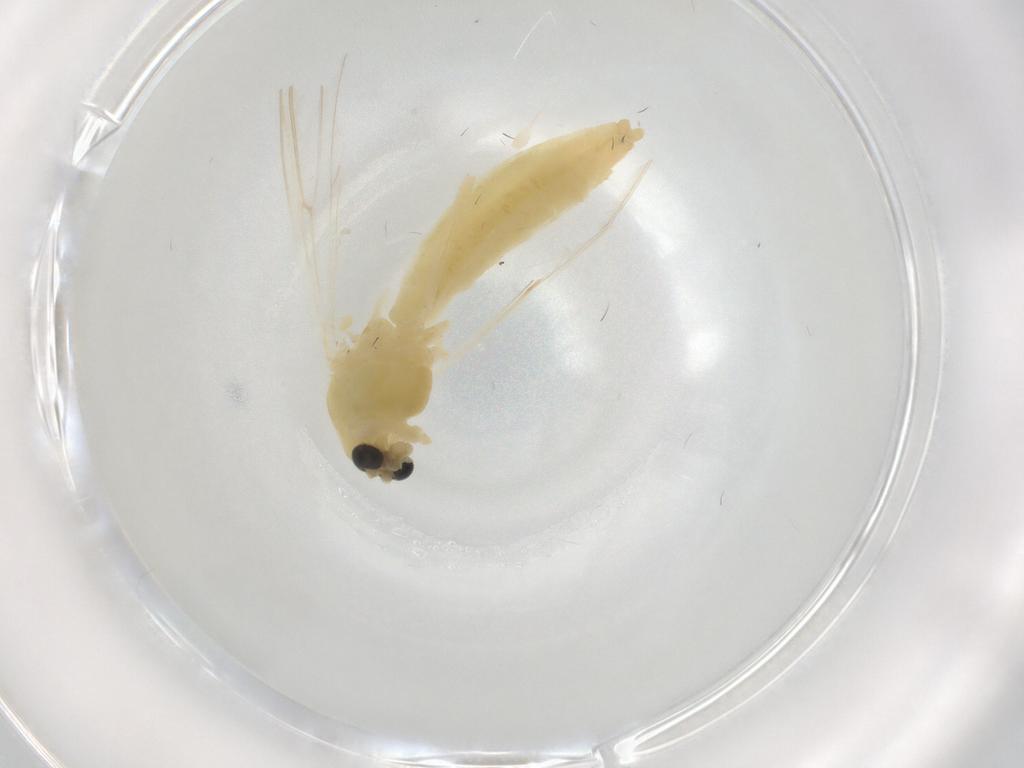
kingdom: Animalia
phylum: Arthropoda
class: Insecta
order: Diptera
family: Chironomidae
